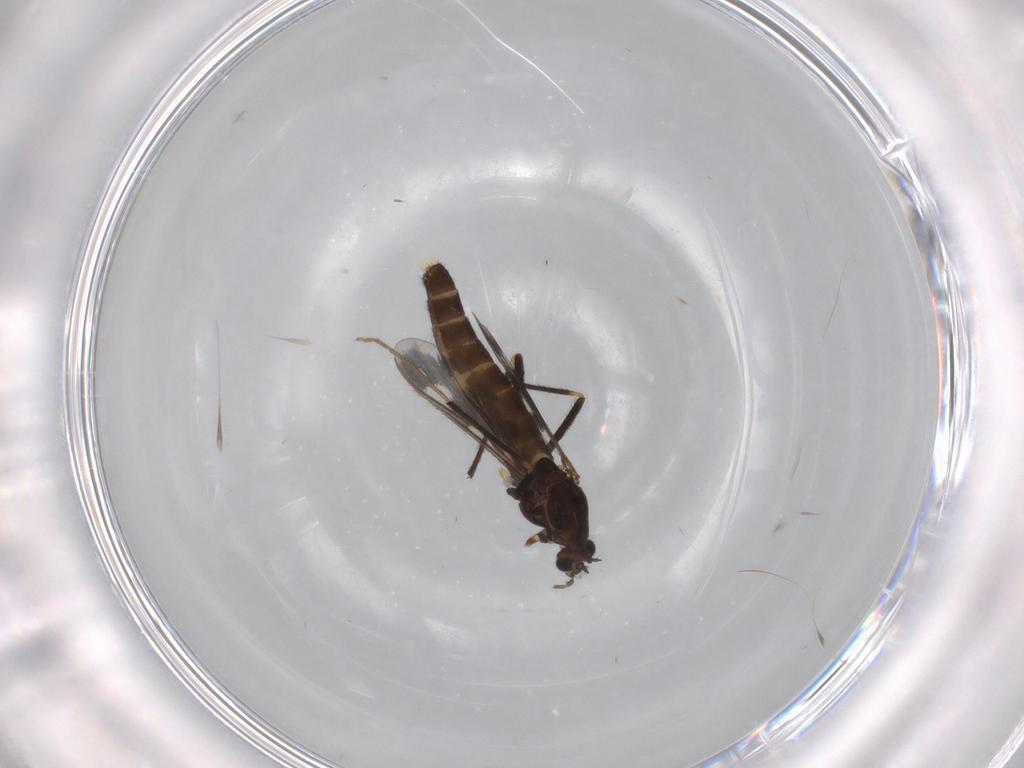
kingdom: Animalia
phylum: Arthropoda
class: Insecta
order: Diptera
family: Chironomidae
